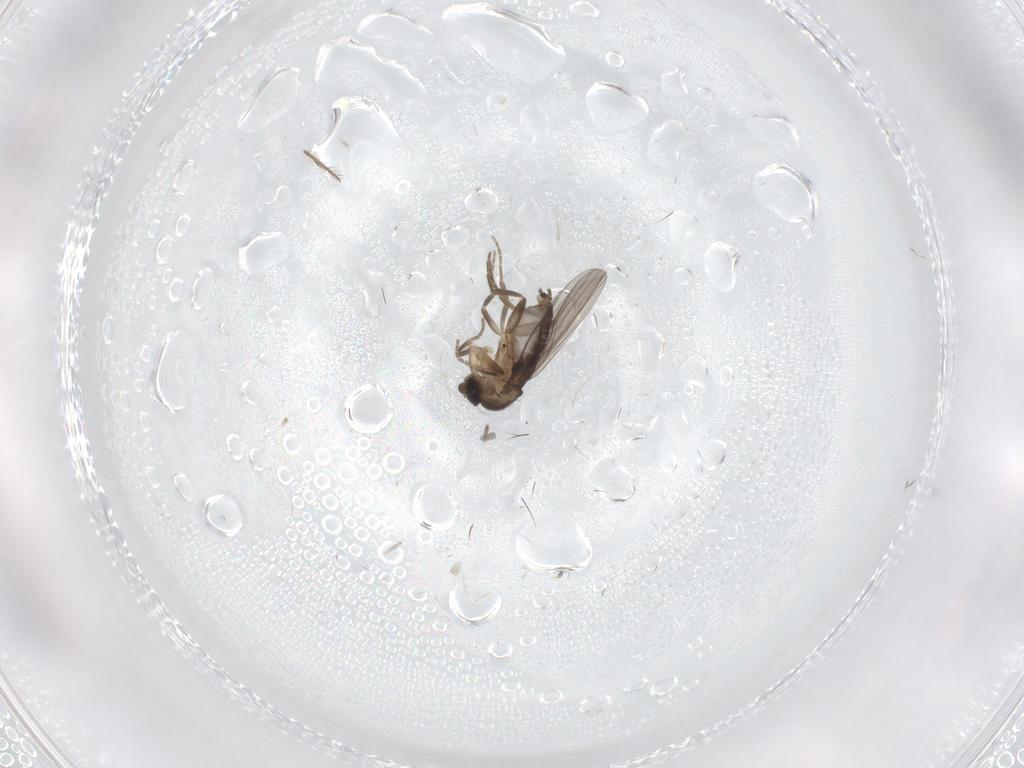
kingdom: Animalia
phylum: Arthropoda
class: Insecta
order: Diptera
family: Phoridae
